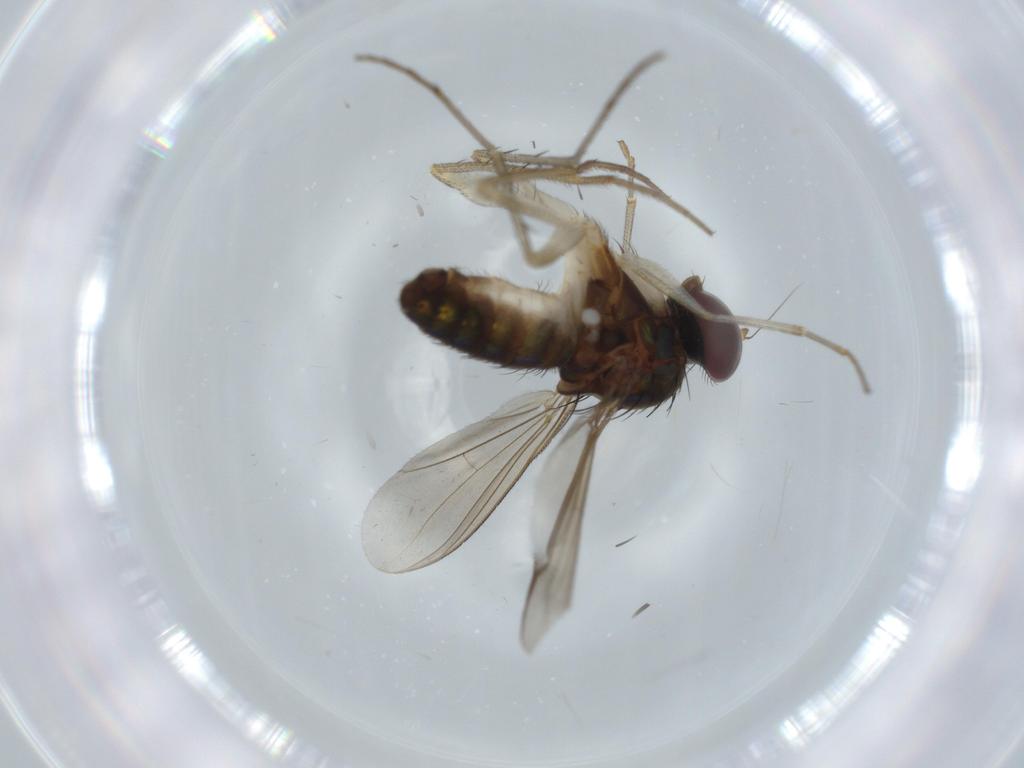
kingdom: Animalia
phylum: Arthropoda
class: Insecta
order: Diptera
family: Dolichopodidae
